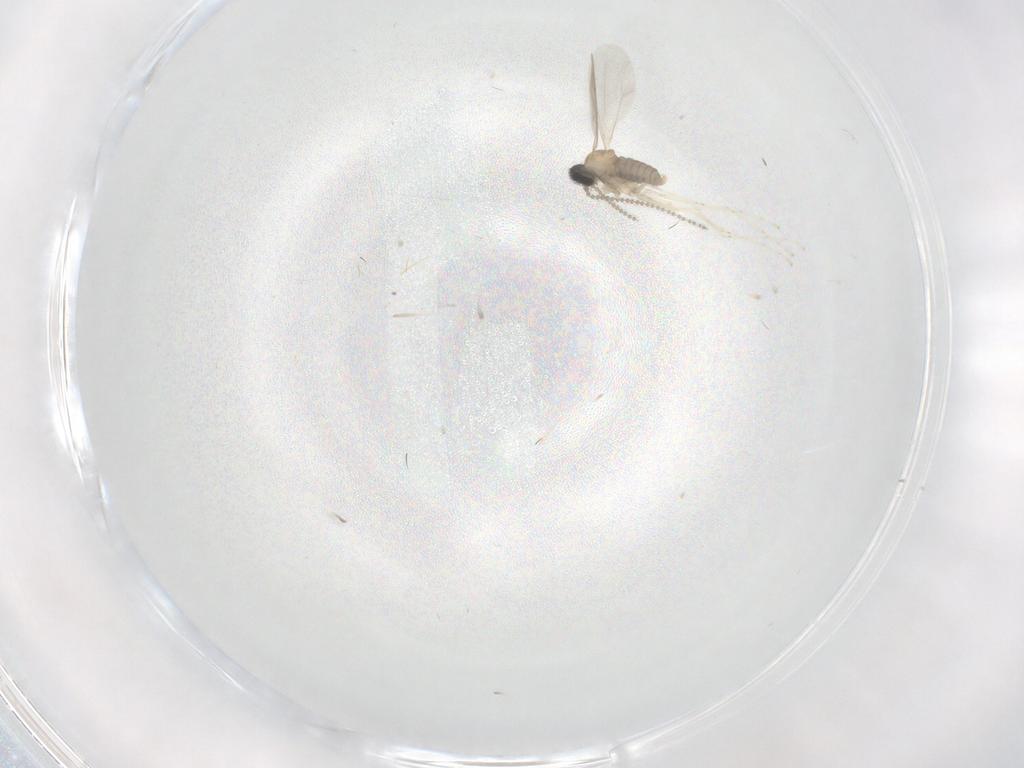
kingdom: Animalia
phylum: Arthropoda
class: Insecta
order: Diptera
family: Cecidomyiidae
